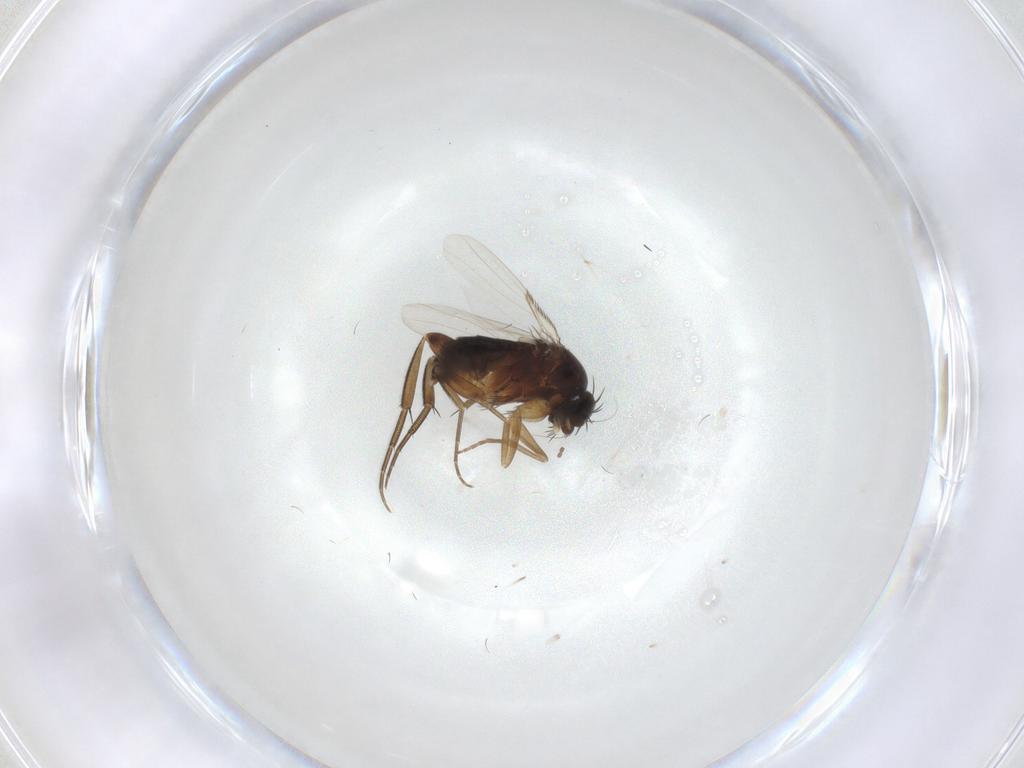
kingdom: Animalia
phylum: Arthropoda
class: Insecta
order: Diptera
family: Phoridae
